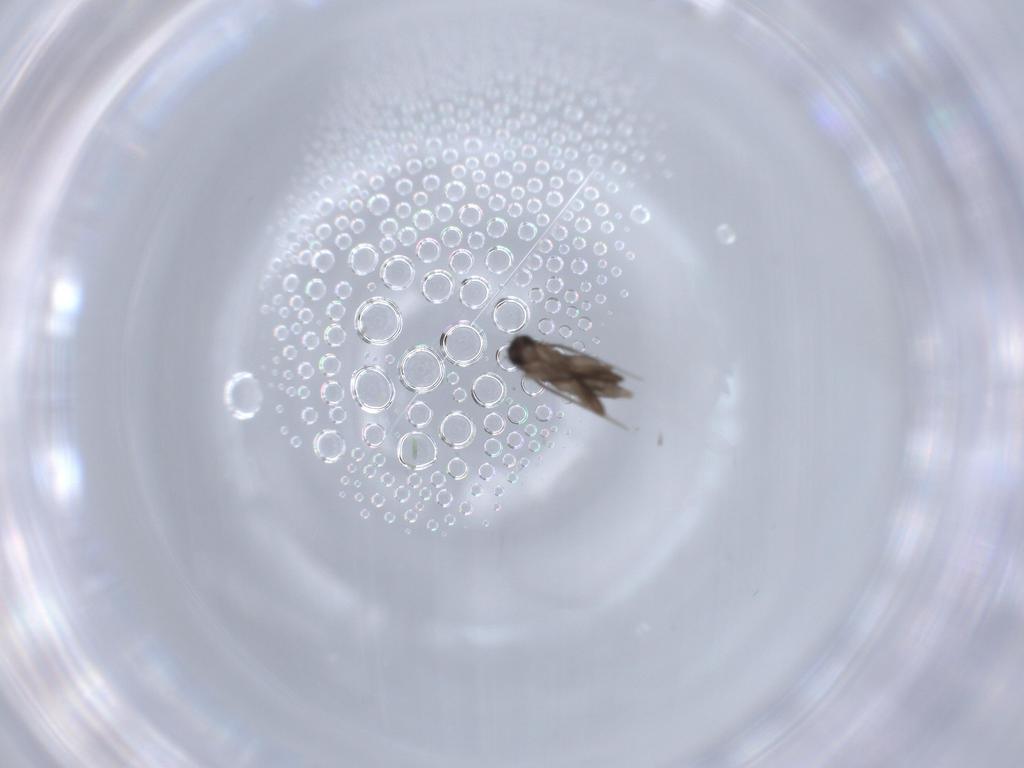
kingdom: Animalia
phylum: Arthropoda
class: Insecta
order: Diptera
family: Phoridae
